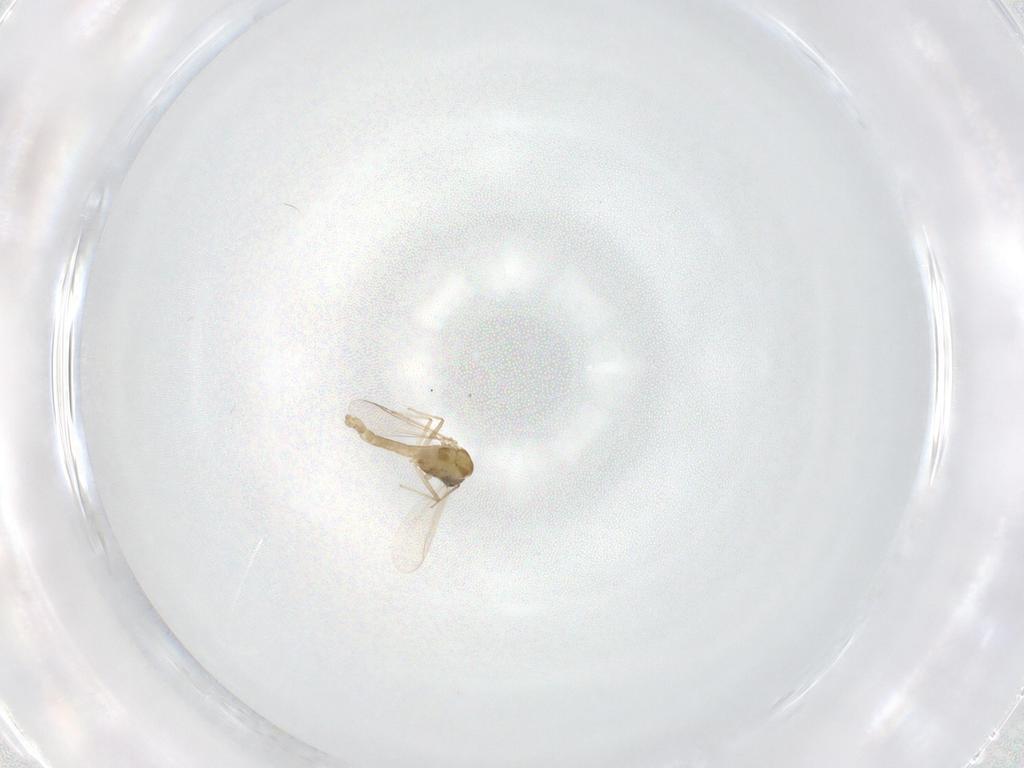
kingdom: Animalia
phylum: Arthropoda
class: Insecta
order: Diptera
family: Chironomidae
